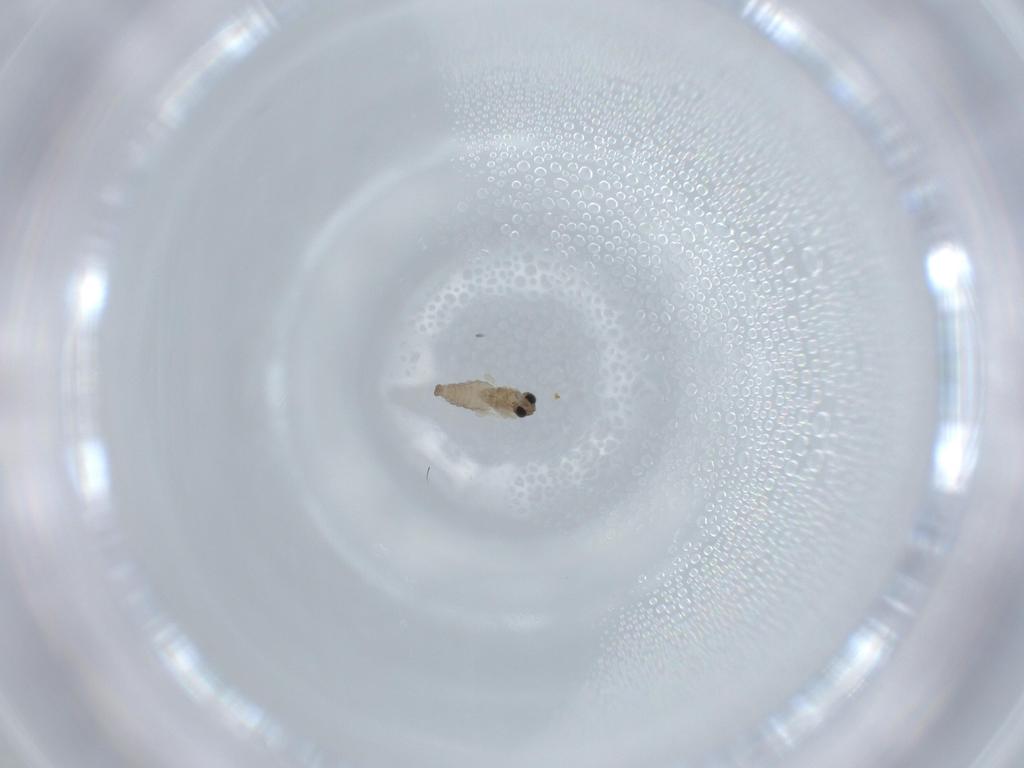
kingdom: Animalia
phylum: Arthropoda
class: Insecta
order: Diptera
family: Cecidomyiidae
